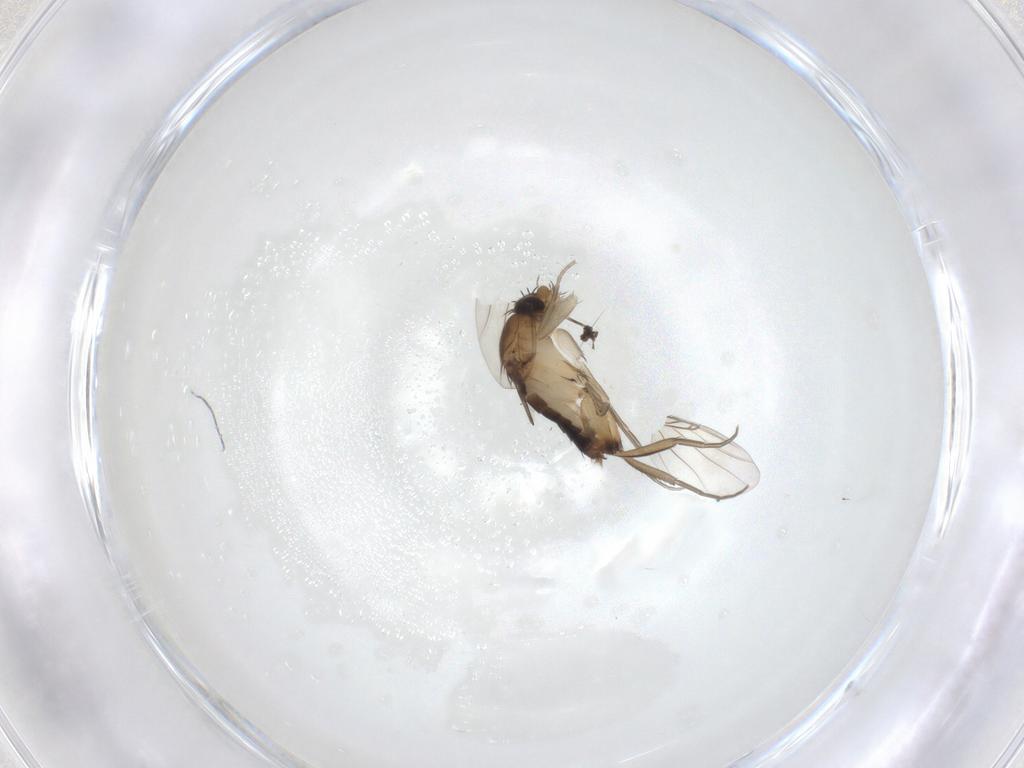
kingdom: Animalia
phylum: Arthropoda
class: Insecta
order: Diptera
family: Phoridae
